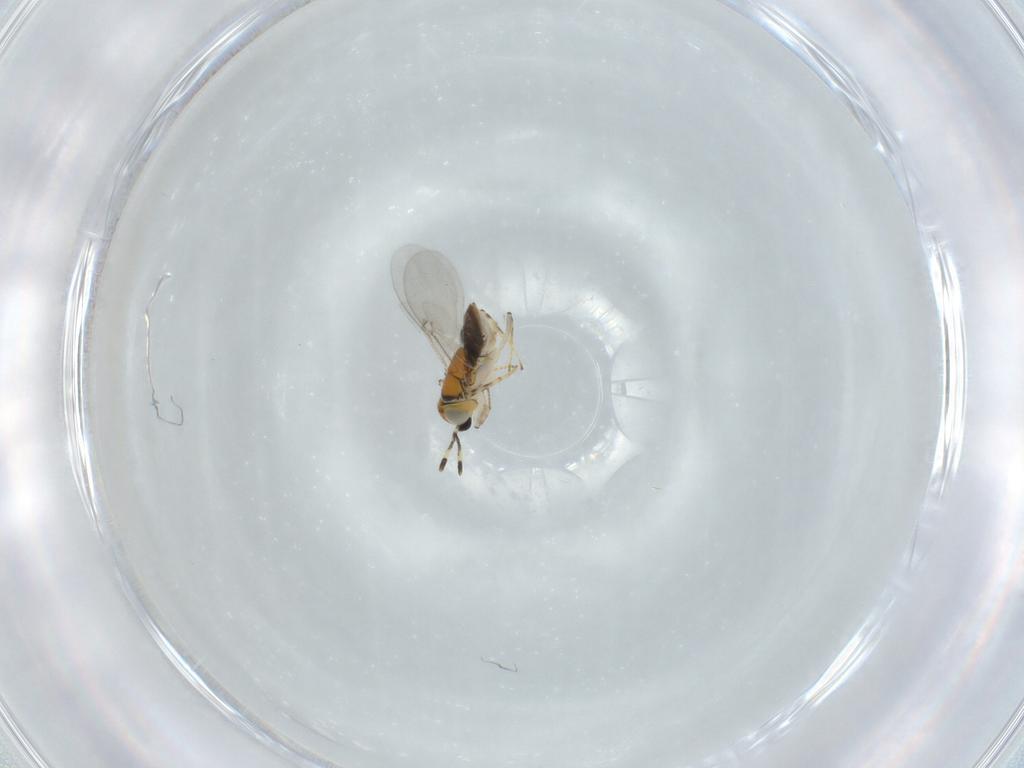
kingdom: Animalia
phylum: Arthropoda
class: Insecta
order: Hymenoptera
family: Encyrtidae
